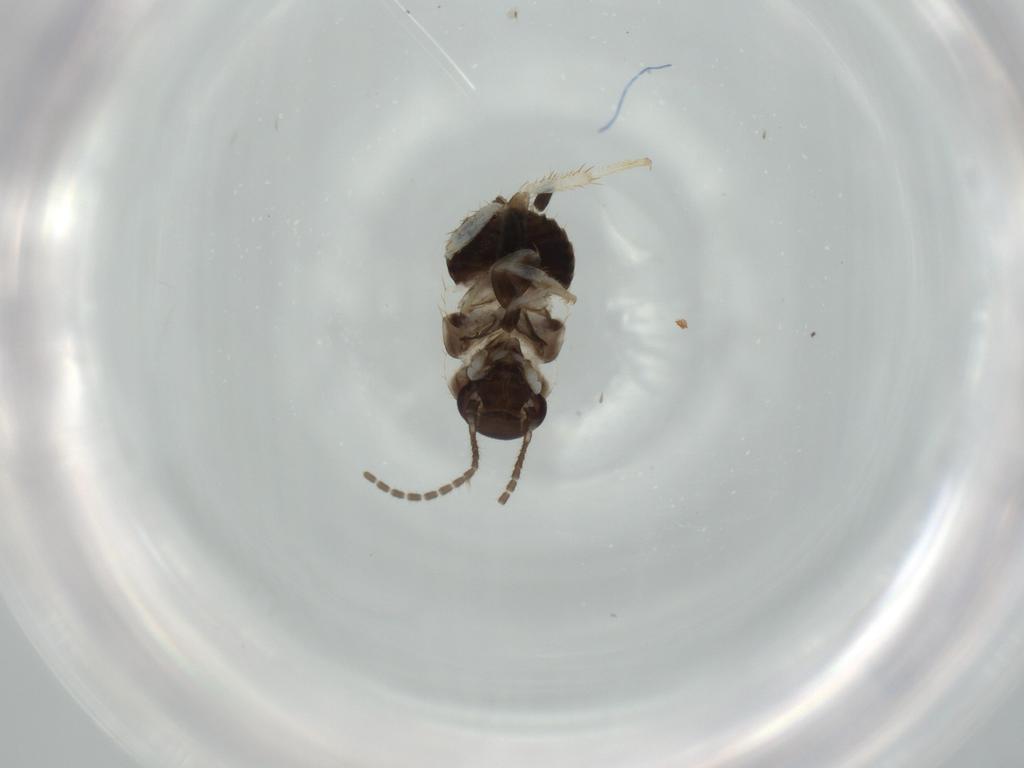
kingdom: Animalia
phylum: Arthropoda
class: Insecta
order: Blattodea
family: Ectobiidae
